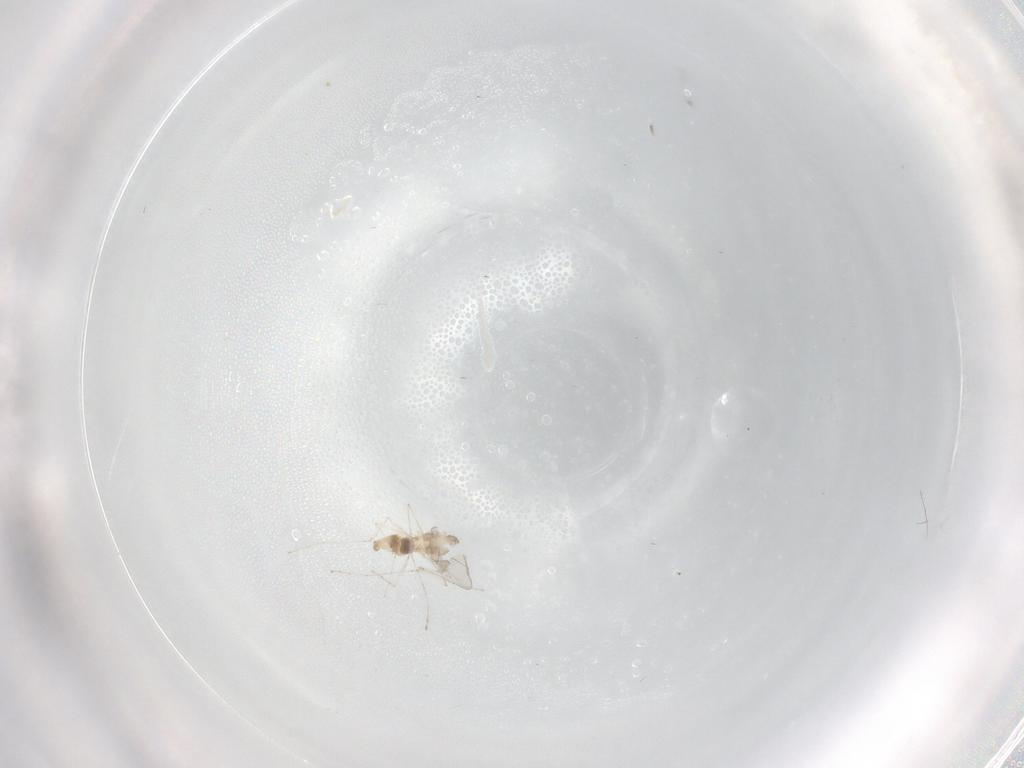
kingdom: Animalia
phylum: Arthropoda
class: Insecta
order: Diptera
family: Cecidomyiidae
